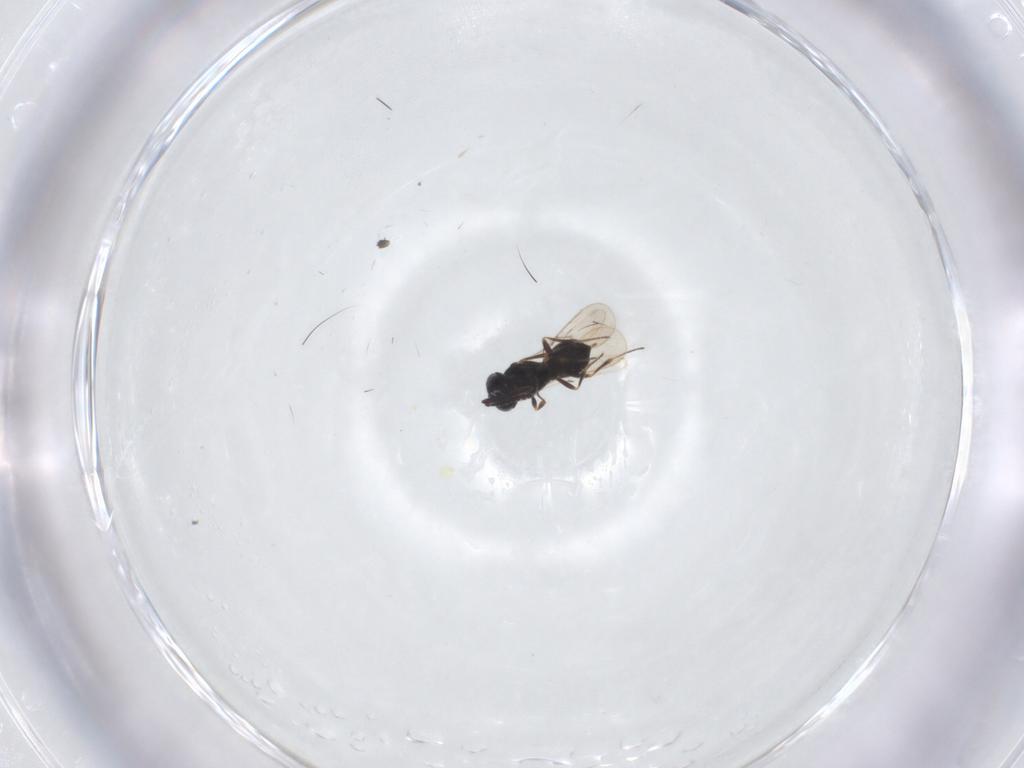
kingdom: Animalia
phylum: Arthropoda
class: Insecta
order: Hymenoptera
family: Scelionidae
